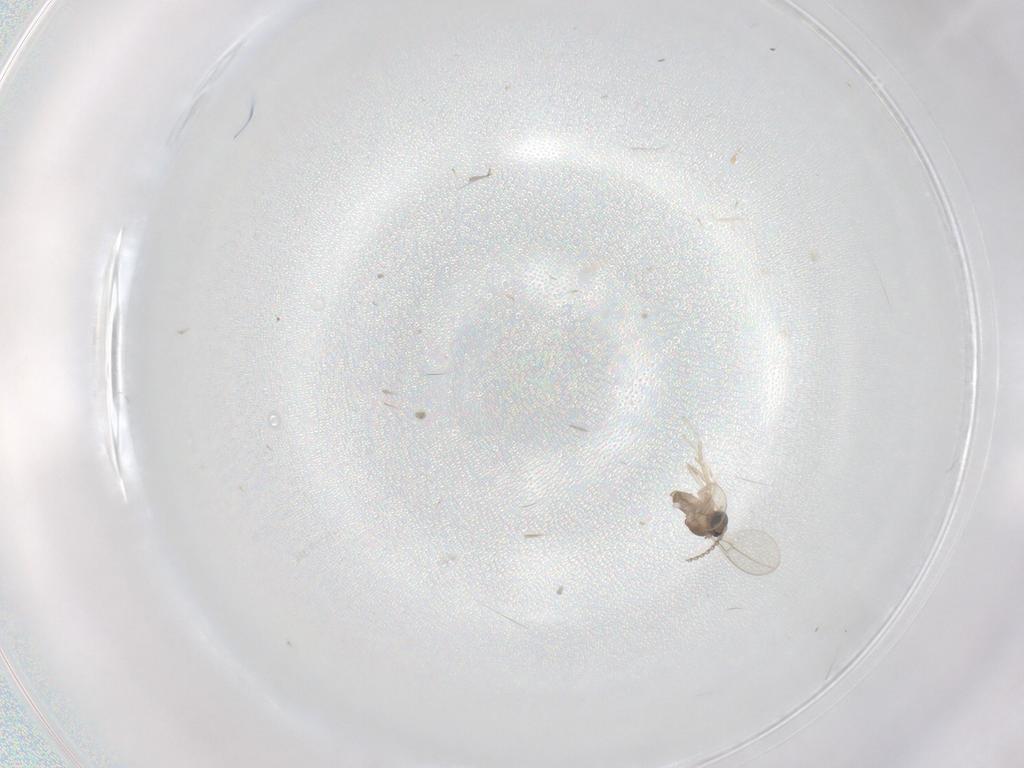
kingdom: Animalia
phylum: Arthropoda
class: Insecta
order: Diptera
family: Cecidomyiidae
